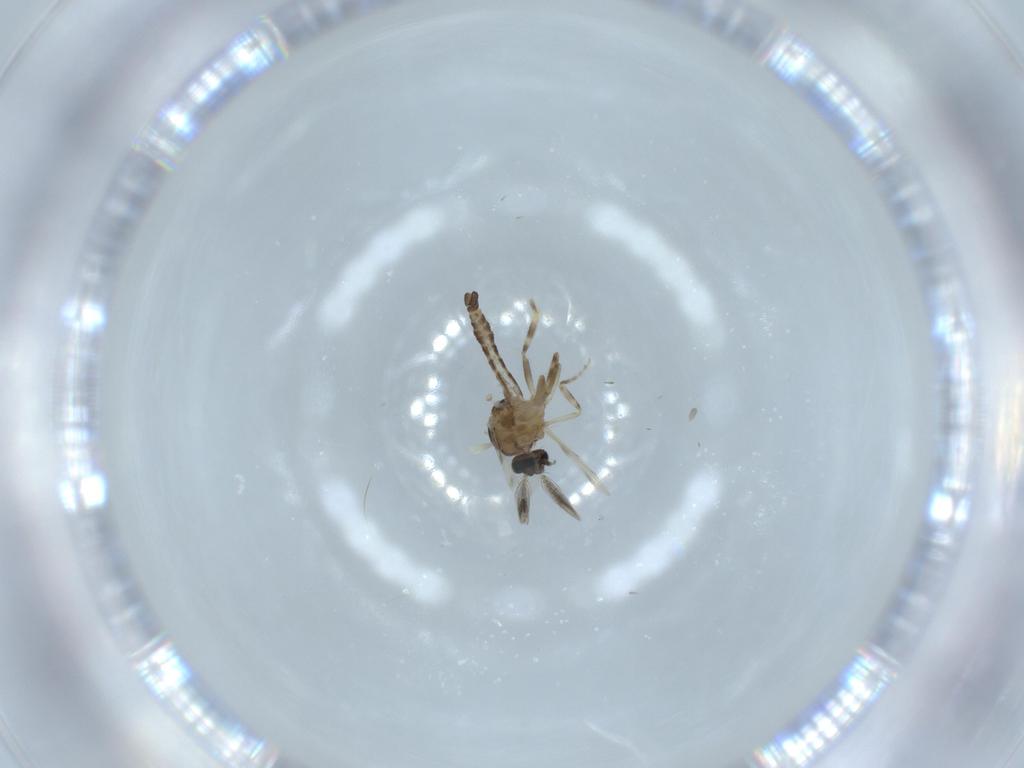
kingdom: Animalia
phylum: Arthropoda
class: Insecta
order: Diptera
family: Ceratopogonidae
